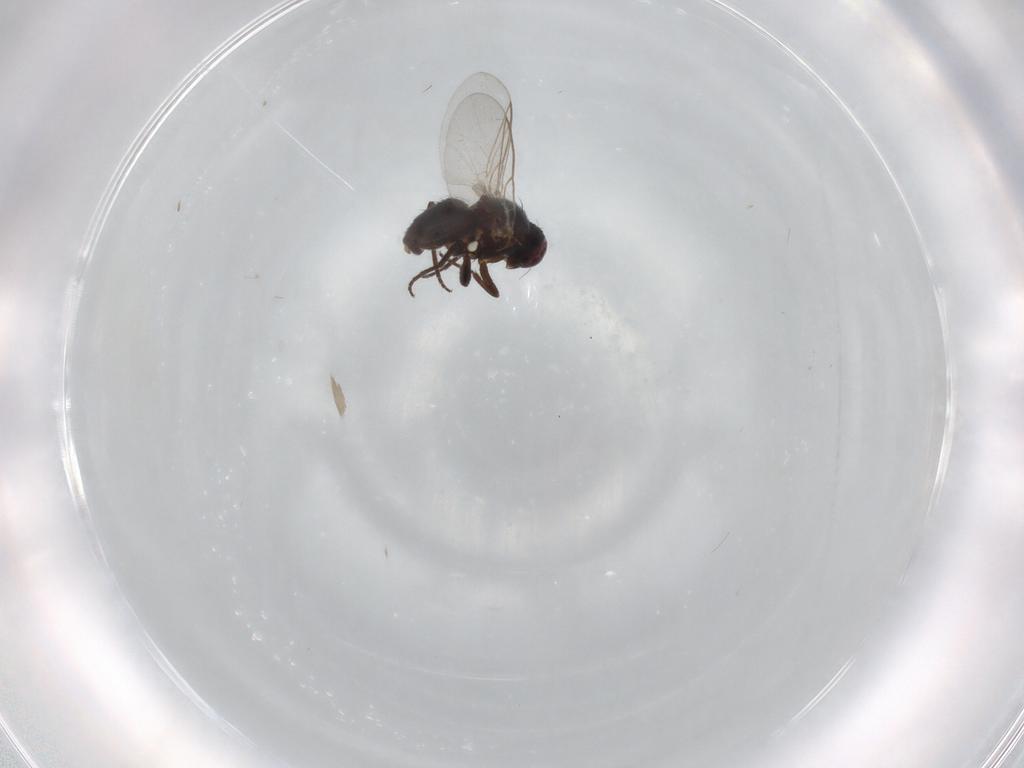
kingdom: Animalia
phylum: Arthropoda
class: Insecta
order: Diptera
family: Agromyzidae
